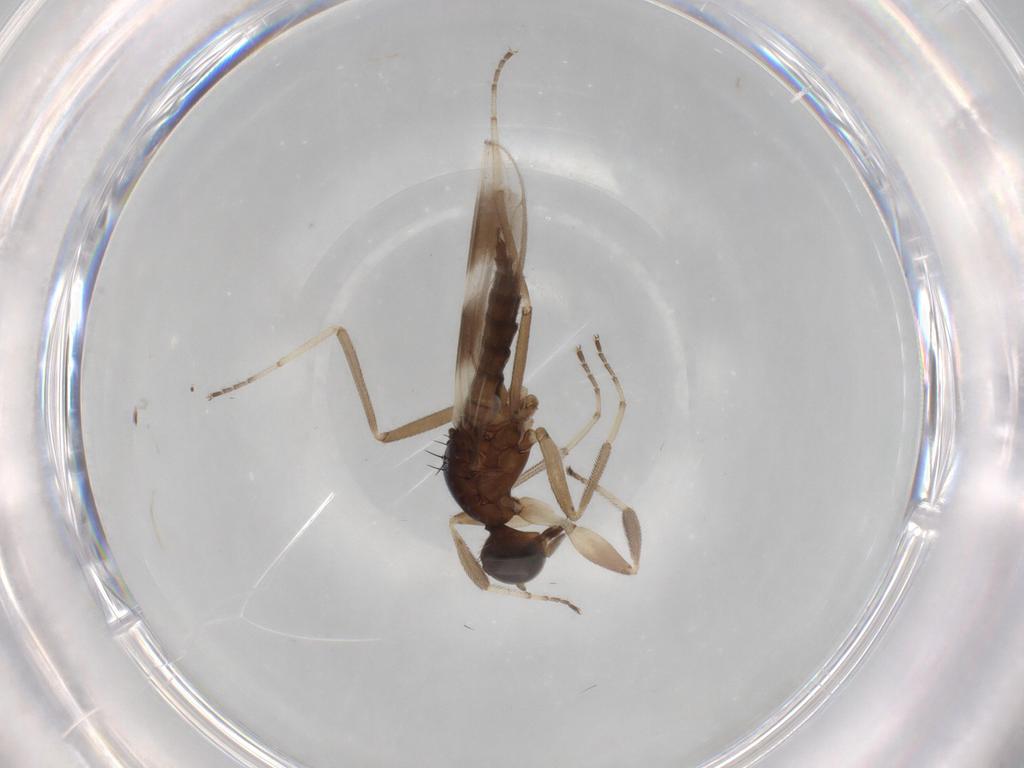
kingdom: Animalia
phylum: Arthropoda
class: Insecta
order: Diptera
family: Hybotidae
